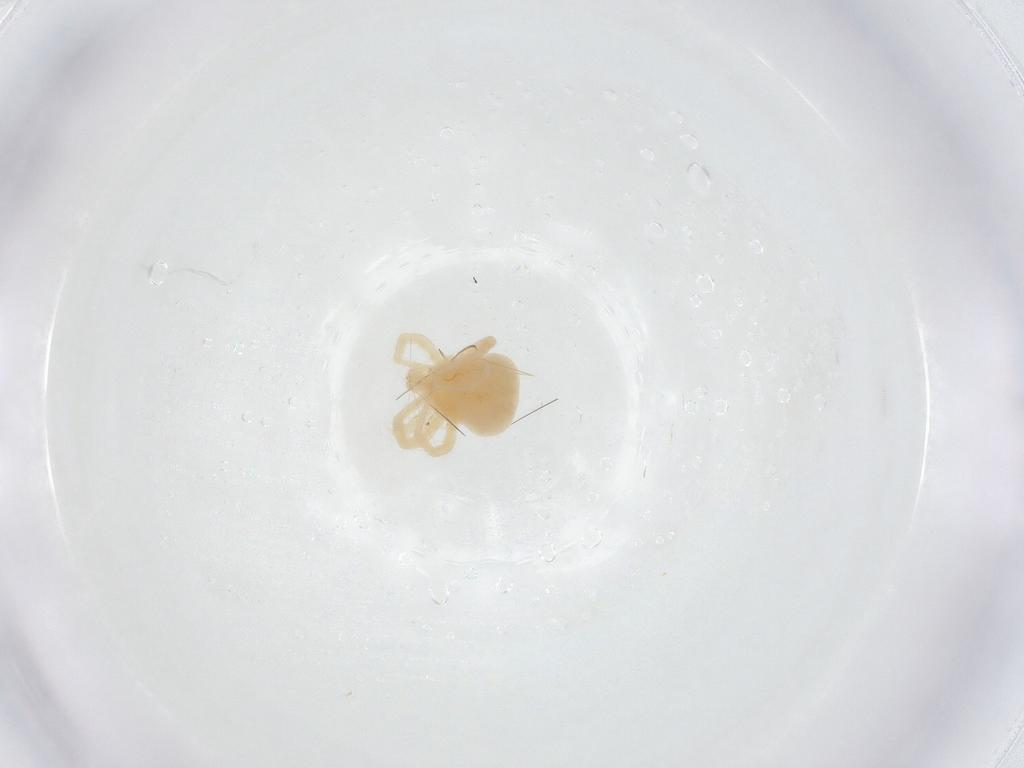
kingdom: Animalia
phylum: Arthropoda
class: Arachnida
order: Trombidiformes
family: Anystidae
